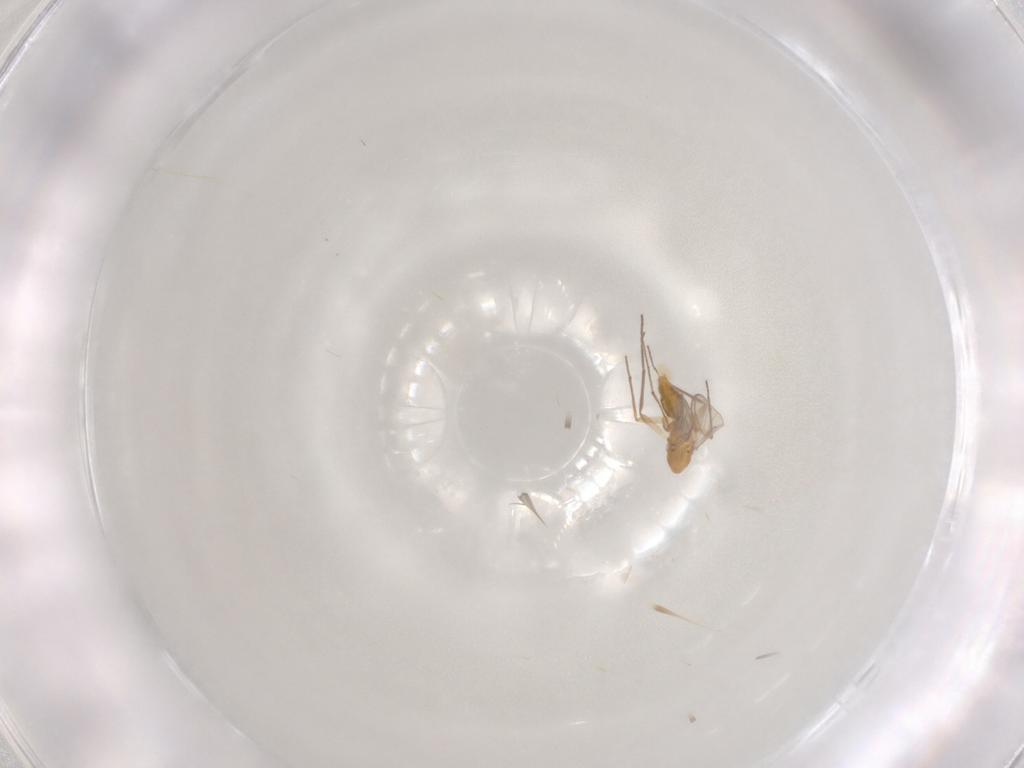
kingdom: Animalia
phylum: Arthropoda
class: Insecta
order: Diptera
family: Chironomidae
